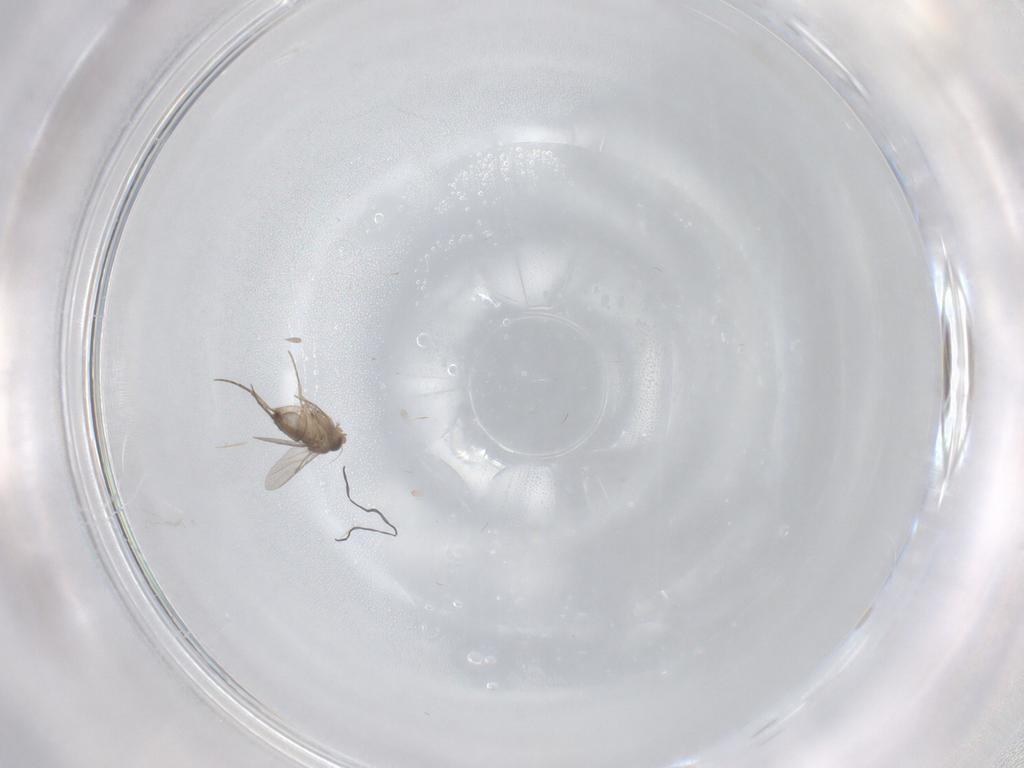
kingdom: Animalia
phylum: Arthropoda
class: Insecta
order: Diptera
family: Phoridae
